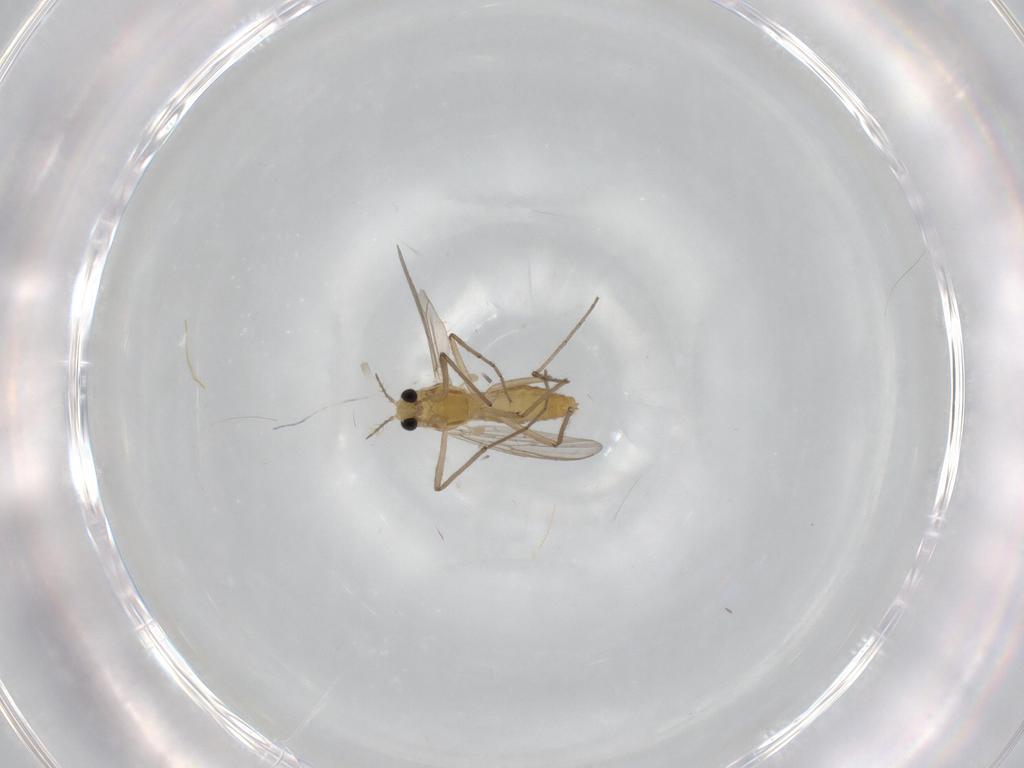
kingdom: Animalia
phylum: Arthropoda
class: Insecta
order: Diptera
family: Chironomidae
